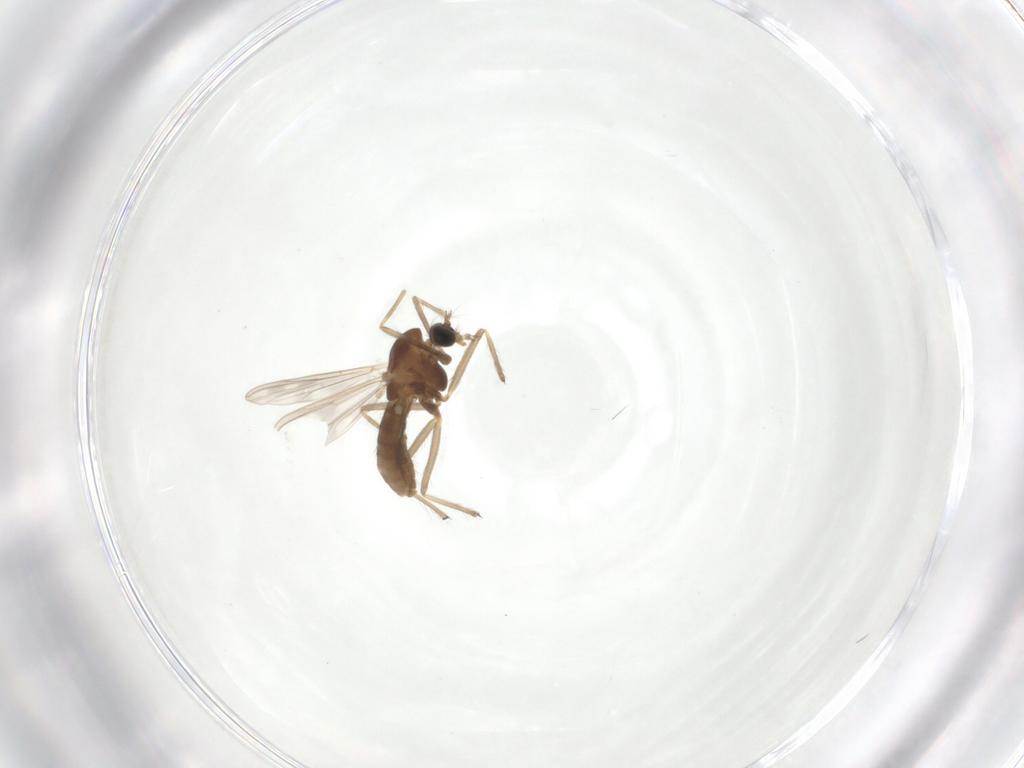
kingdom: Animalia
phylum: Arthropoda
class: Insecta
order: Diptera
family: Chironomidae
